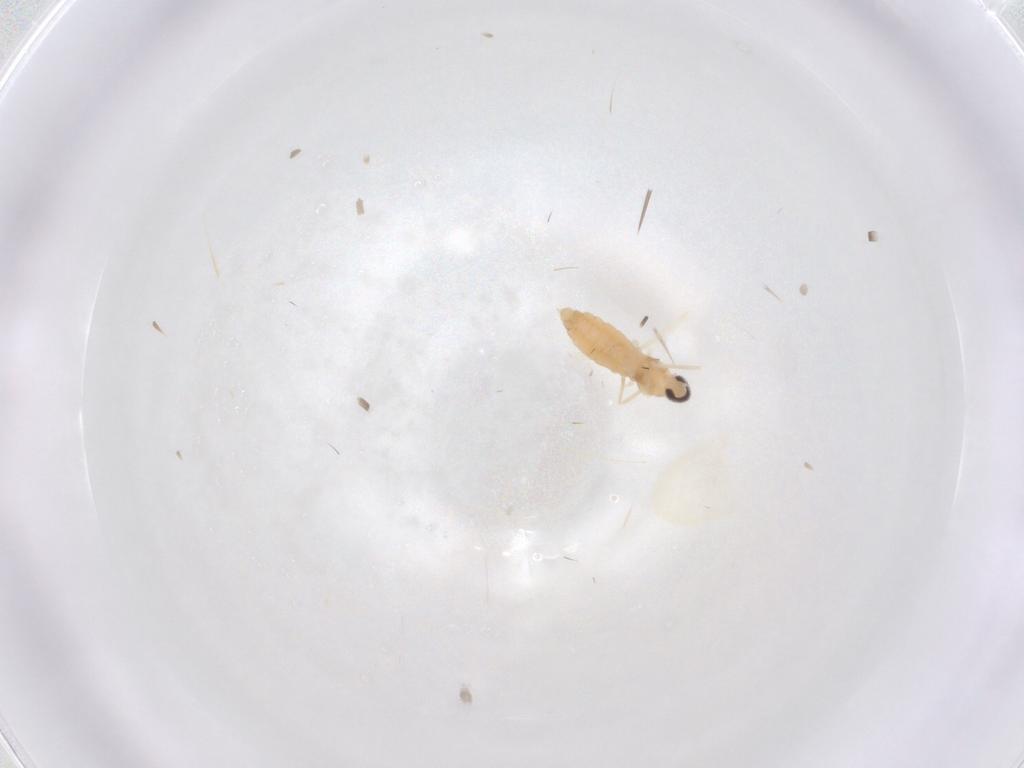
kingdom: Animalia
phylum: Arthropoda
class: Insecta
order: Diptera
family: Cecidomyiidae
